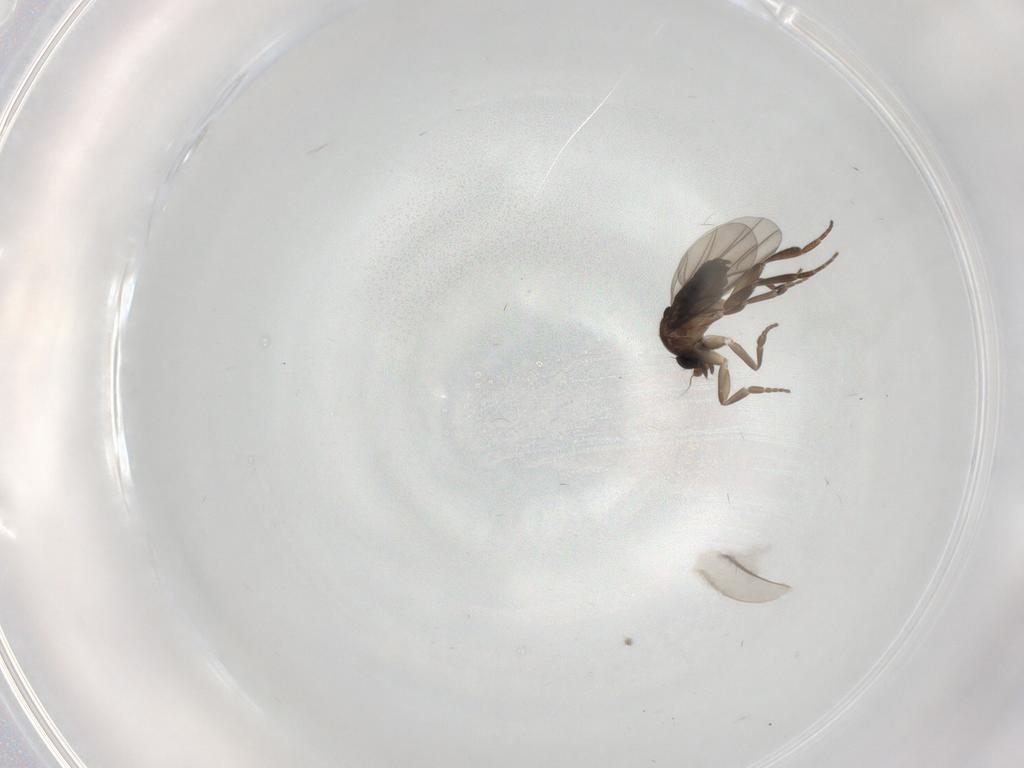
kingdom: Animalia
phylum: Arthropoda
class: Insecta
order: Diptera
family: Phoridae
